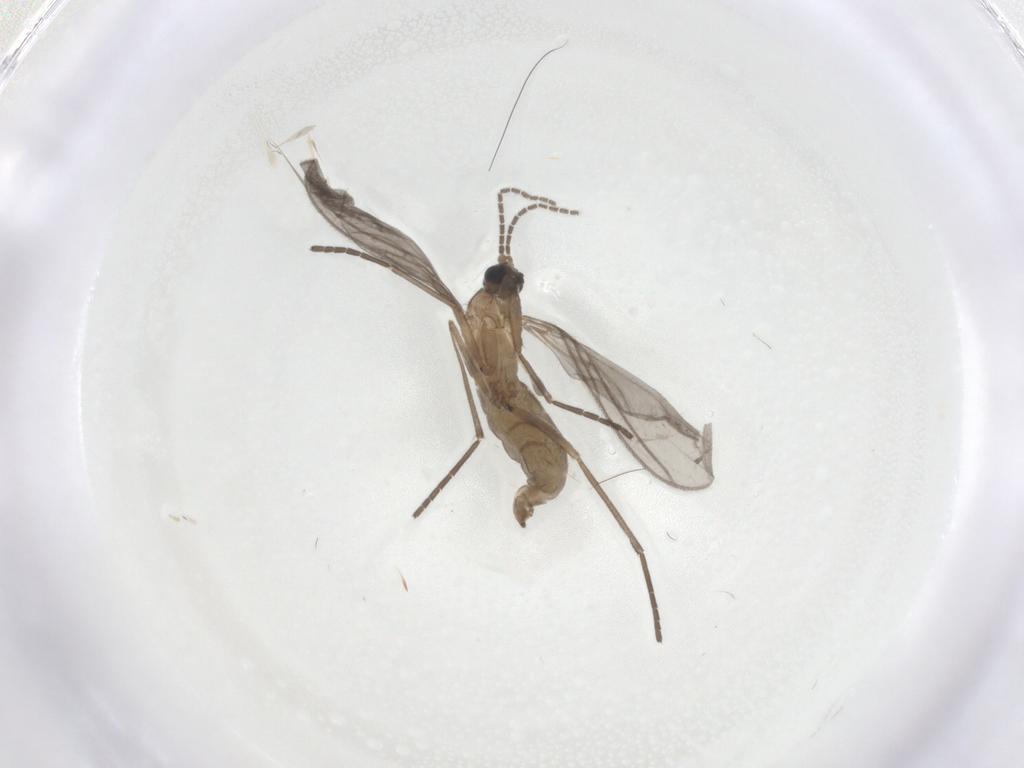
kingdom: Animalia
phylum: Arthropoda
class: Insecta
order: Diptera
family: Sciaridae
